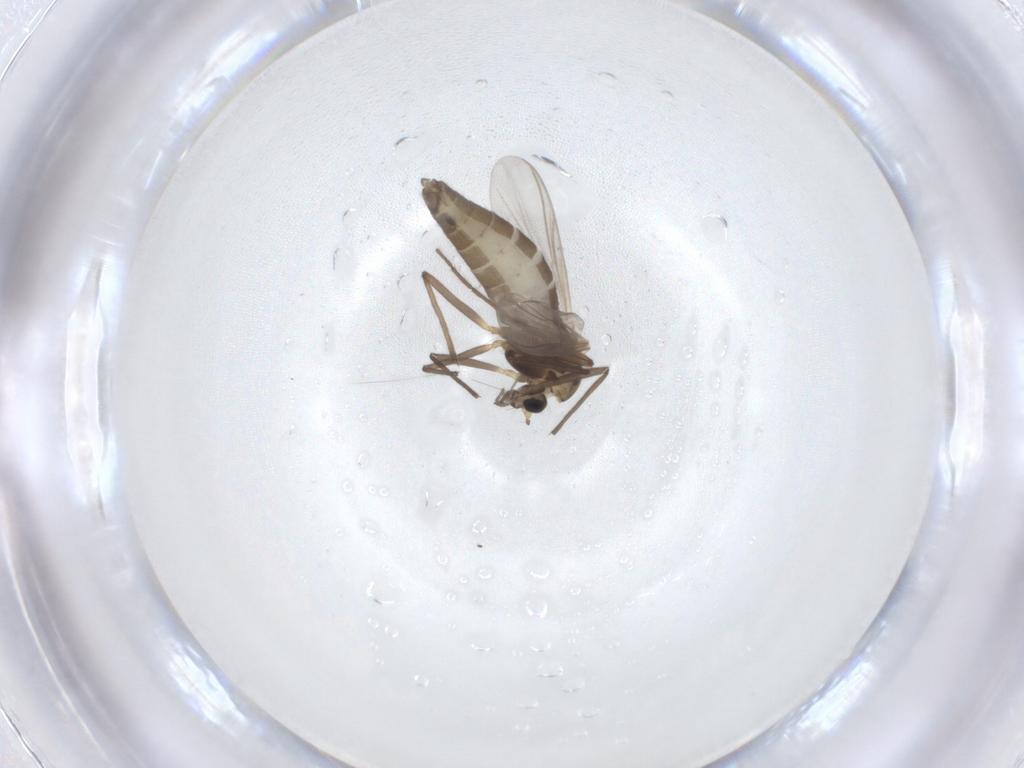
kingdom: Animalia
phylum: Arthropoda
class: Insecta
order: Diptera
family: Chironomidae
